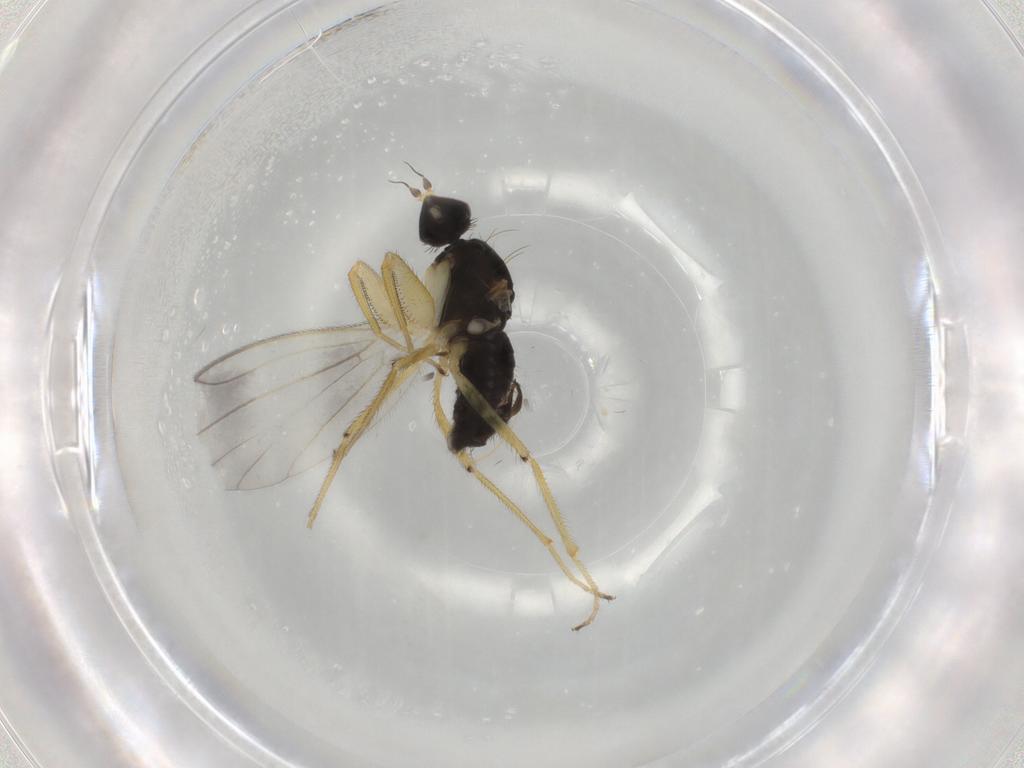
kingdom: Animalia
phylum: Arthropoda
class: Insecta
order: Diptera
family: Empididae
